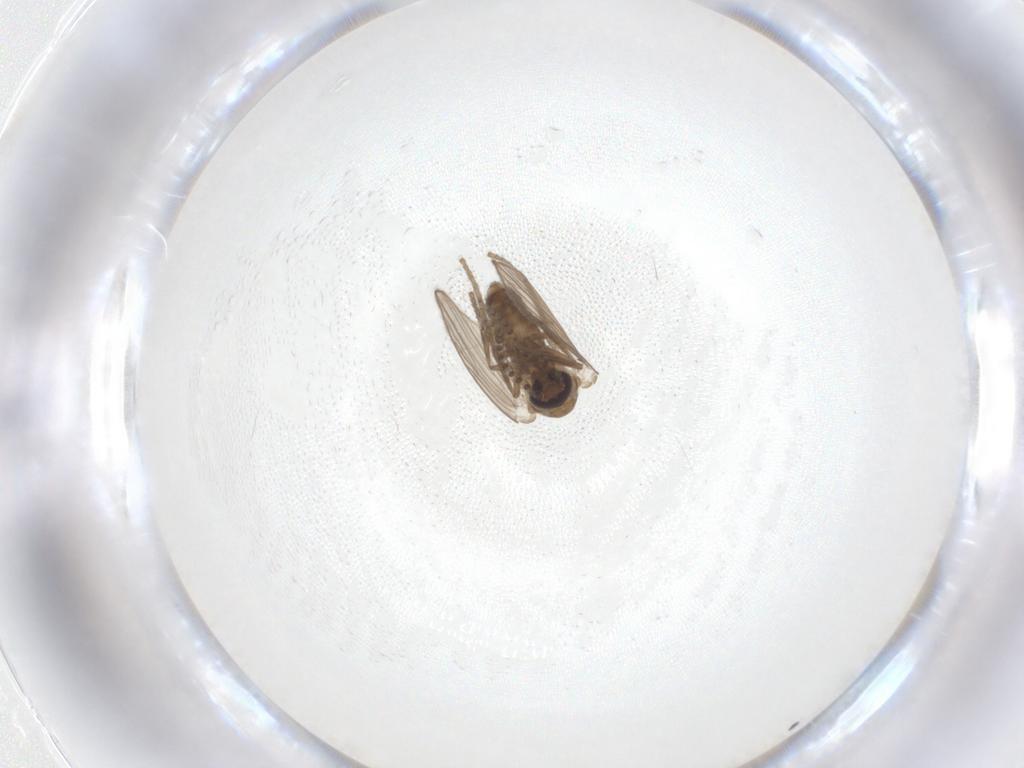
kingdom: Animalia
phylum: Arthropoda
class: Insecta
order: Diptera
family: Psychodidae
